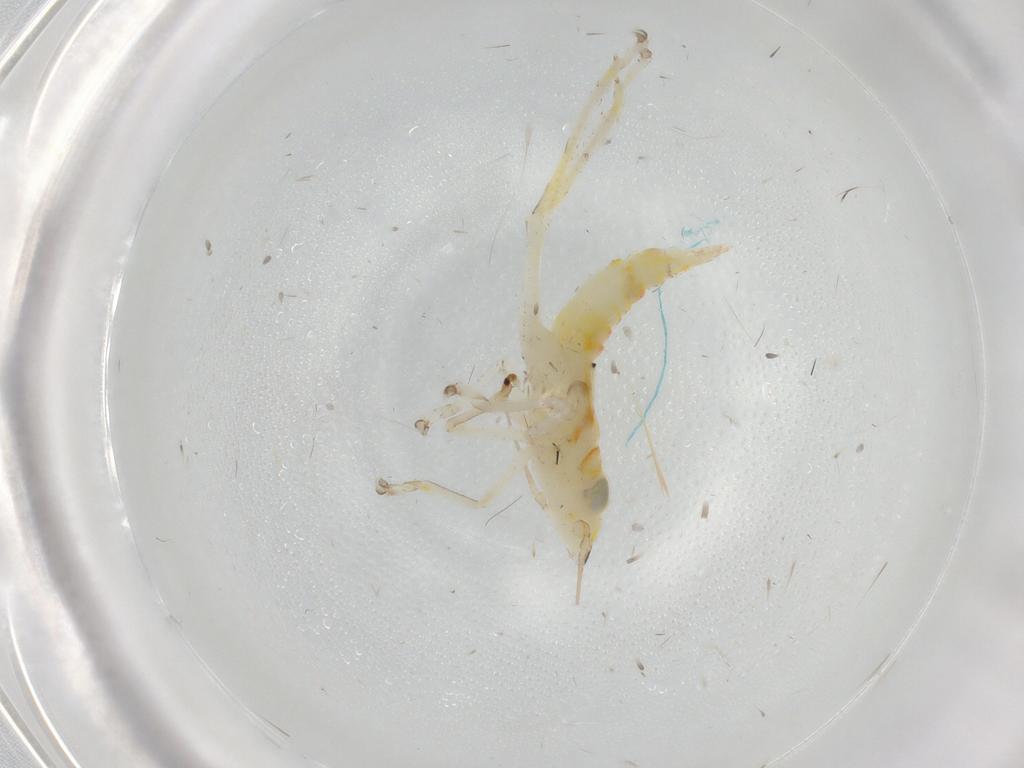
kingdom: Animalia
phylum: Arthropoda
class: Insecta
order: Hemiptera
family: Cicadellidae
